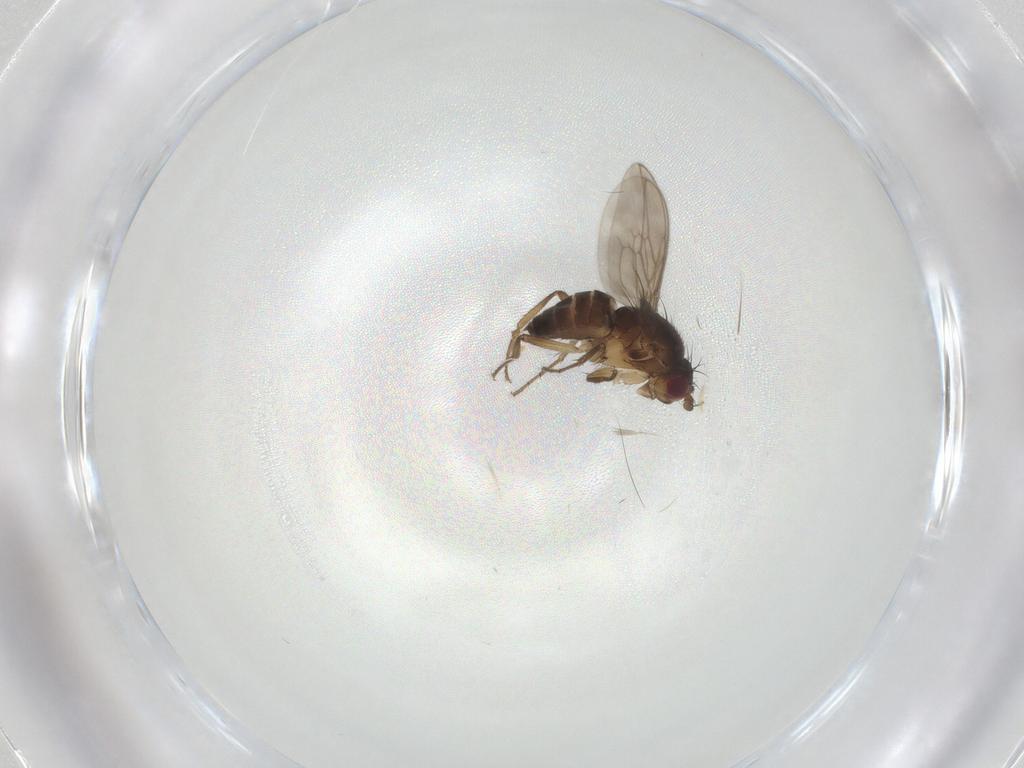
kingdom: Animalia
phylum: Arthropoda
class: Insecta
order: Diptera
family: Sphaeroceridae
